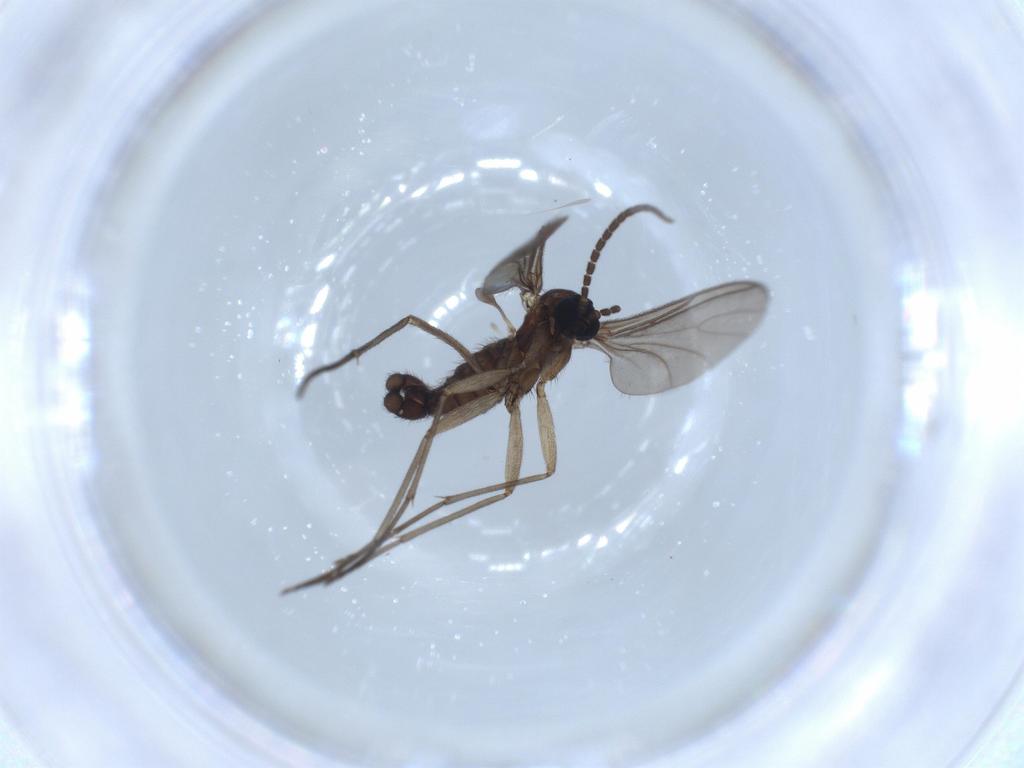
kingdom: Animalia
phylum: Arthropoda
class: Insecta
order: Diptera
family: Sciaridae
